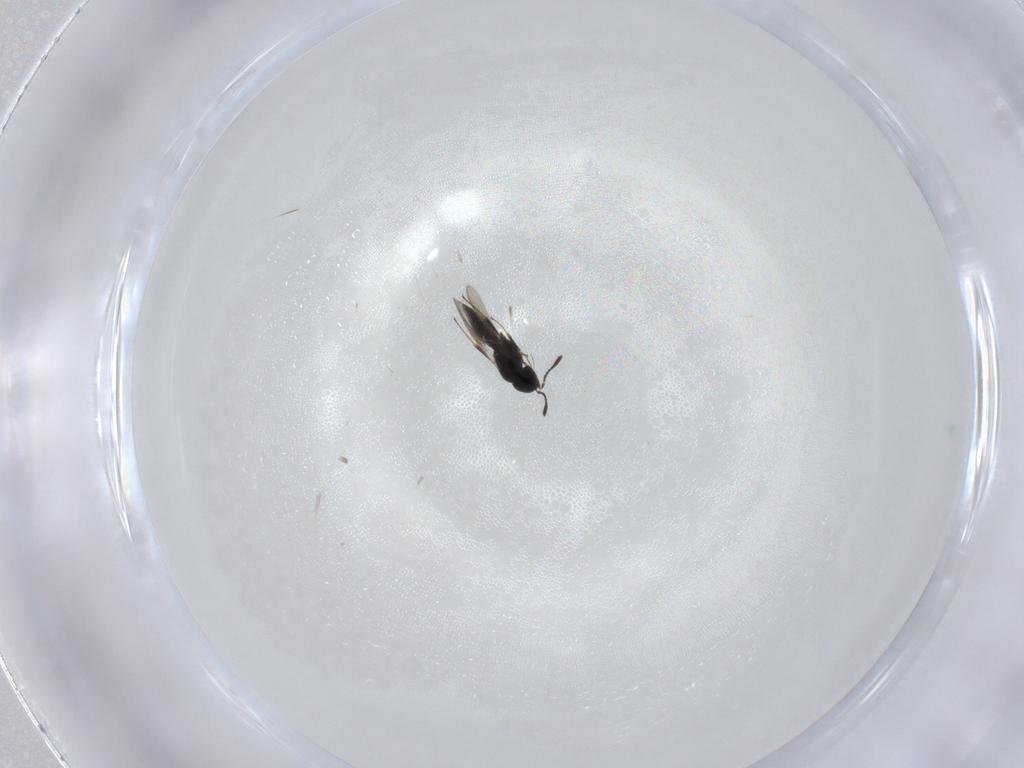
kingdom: Animalia
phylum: Arthropoda
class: Insecta
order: Hymenoptera
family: Scelionidae
